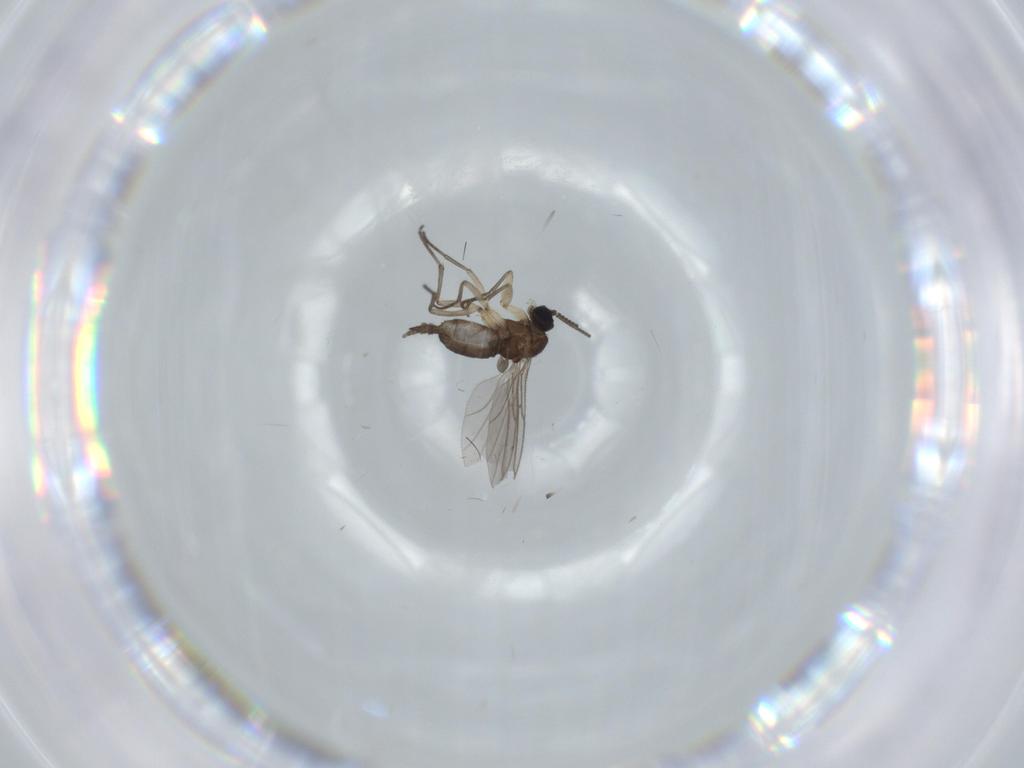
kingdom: Animalia
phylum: Arthropoda
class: Insecta
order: Diptera
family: Sciaridae
